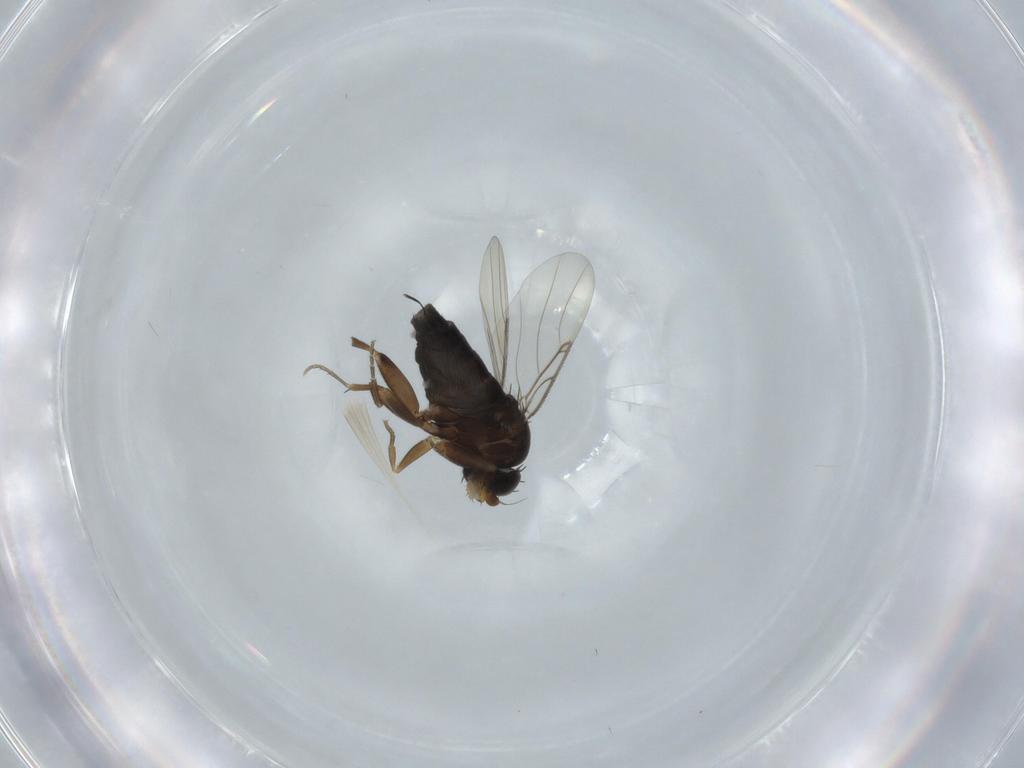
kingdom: Animalia
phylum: Arthropoda
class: Insecta
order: Diptera
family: Phoridae
